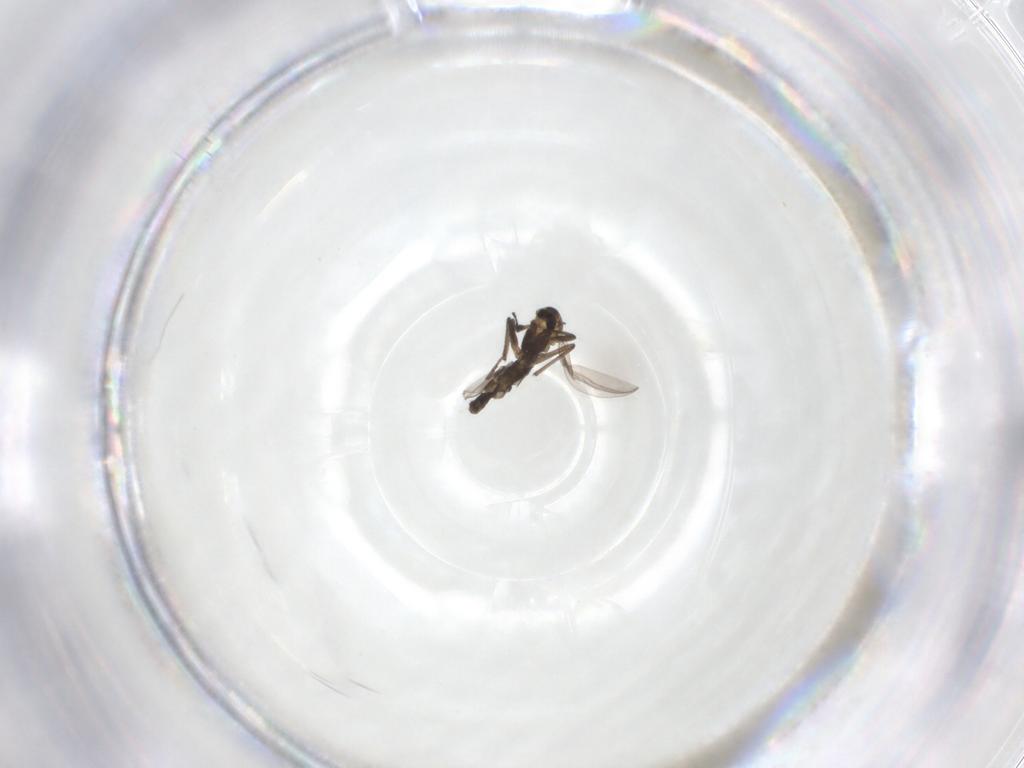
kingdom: Animalia
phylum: Arthropoda
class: Insecta
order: Diptera
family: Chironomidae
